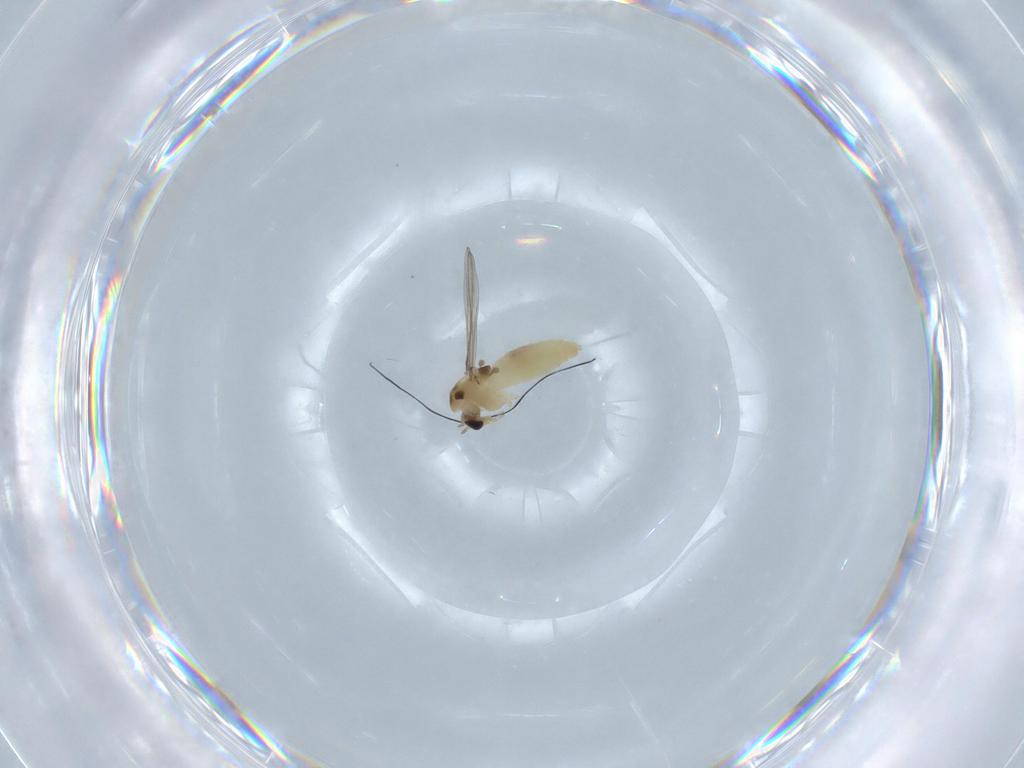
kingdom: Animalia
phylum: Arthropoda
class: Insecta
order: Diptera
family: Chironomidae
